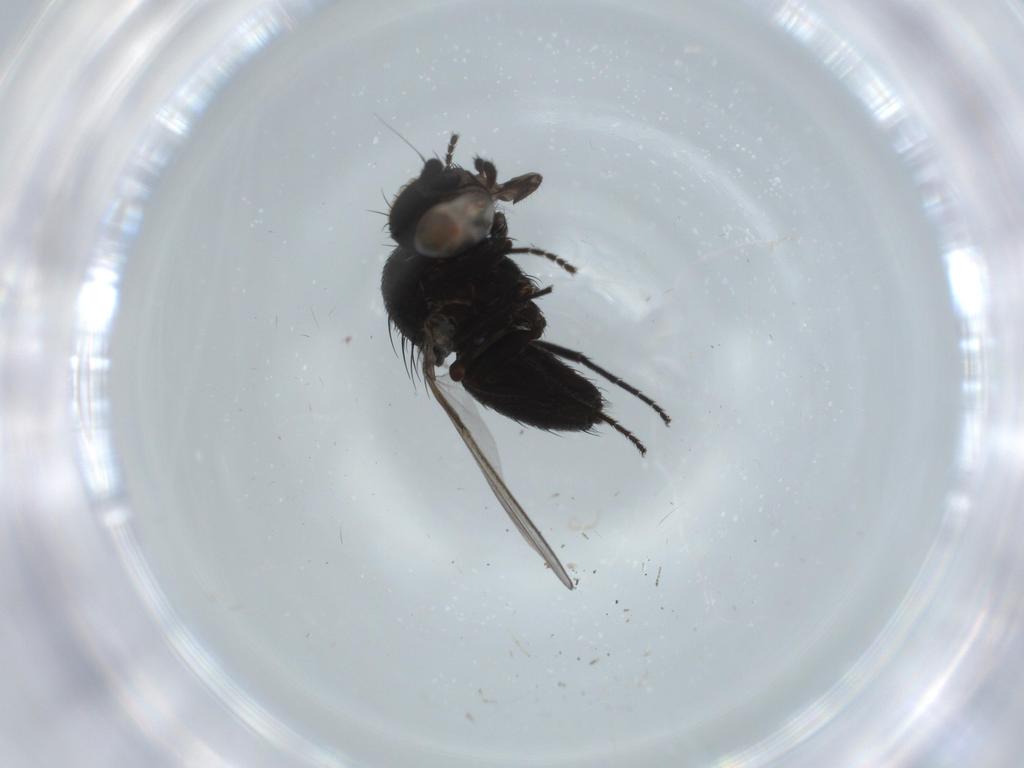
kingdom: Animalia
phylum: Arthropoda
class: Insecta
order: Diptera
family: Milichiidae
